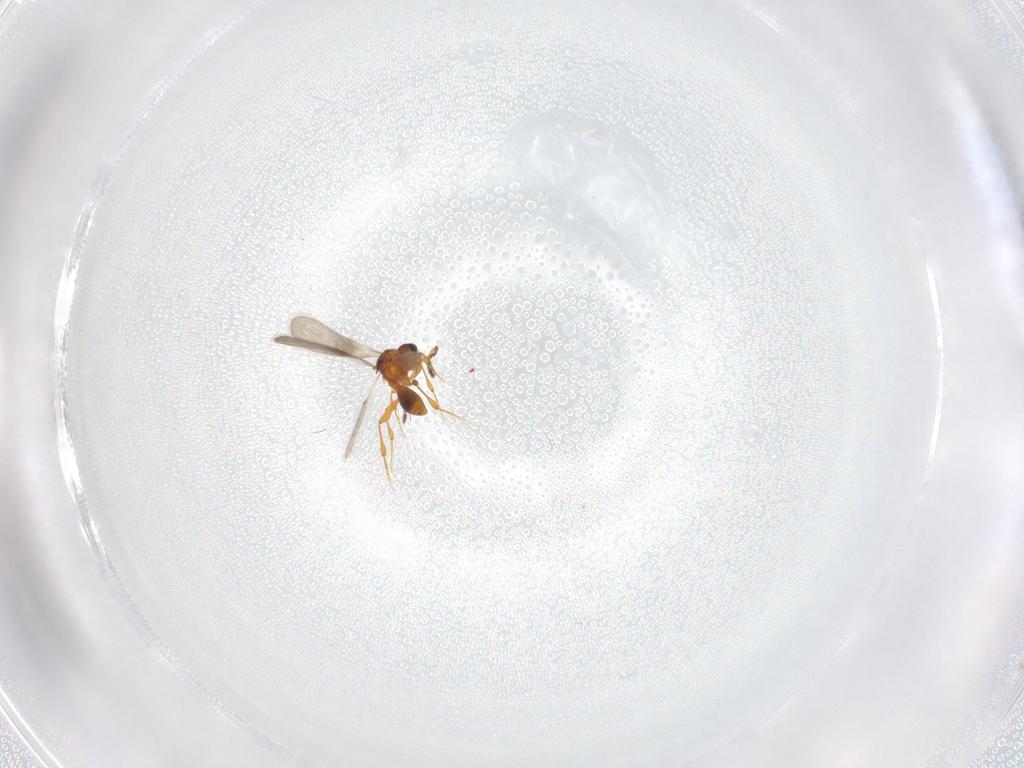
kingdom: Animalia
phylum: Arthropoda
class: Insecta
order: Hymenoptera
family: Platygastridae
